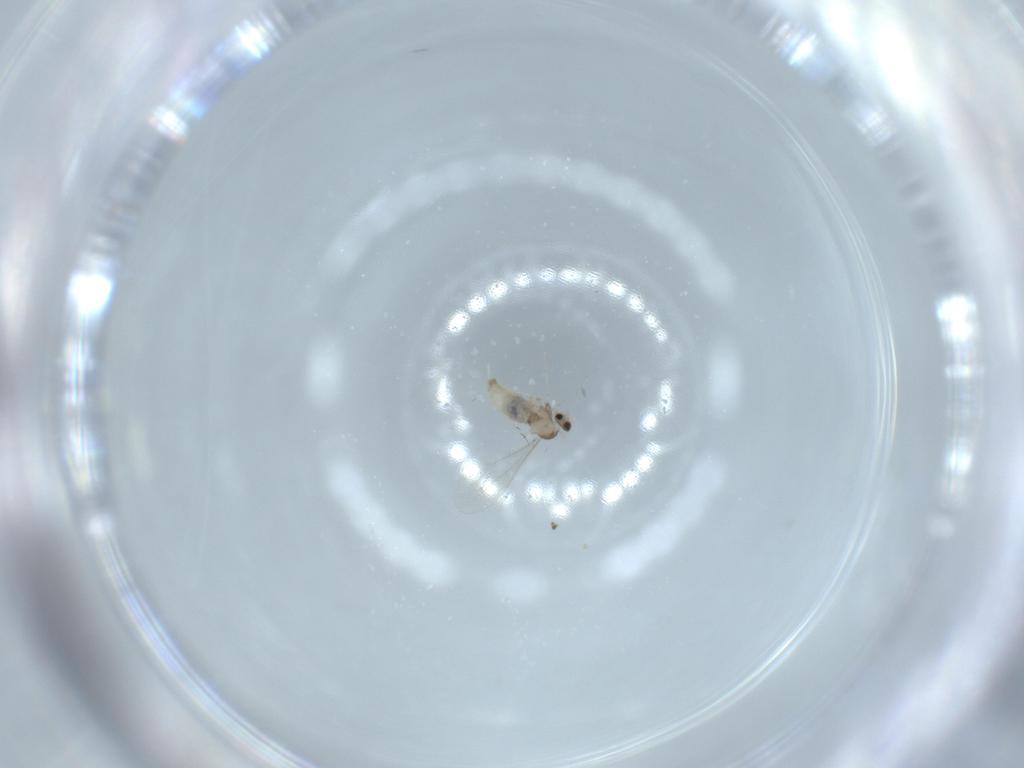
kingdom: Animalia
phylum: Arthropoda
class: Insecta
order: Diptera
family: Cecidomyiidae
